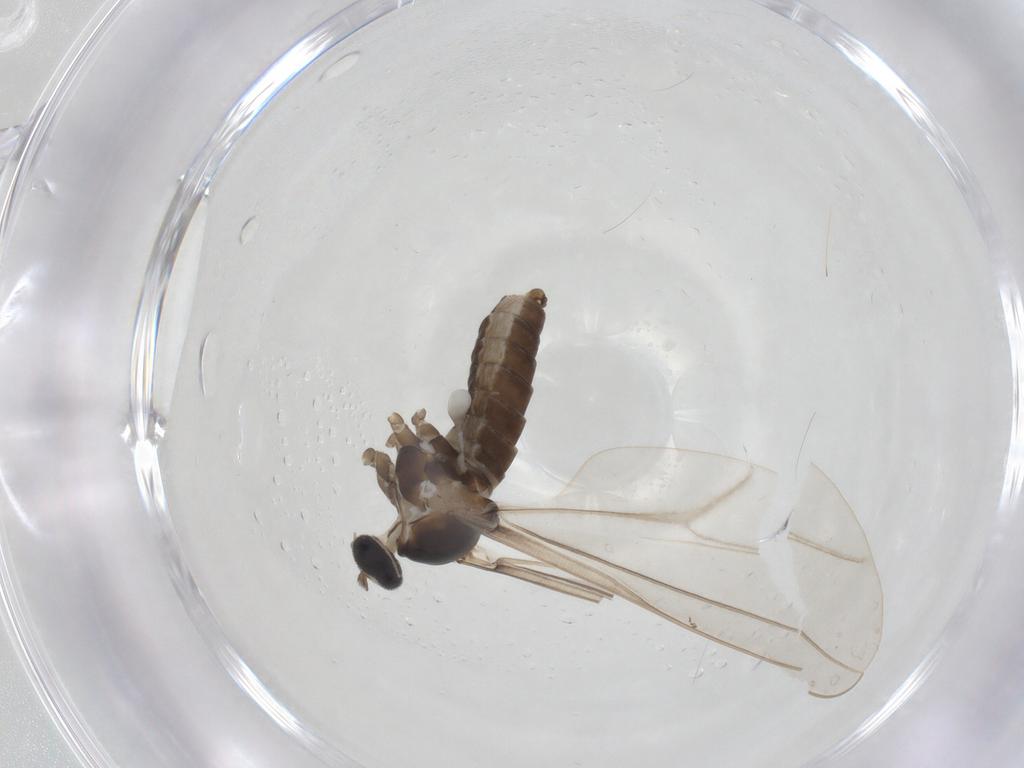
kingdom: Animalia
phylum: Arthropoda
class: Insecta
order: Diptera
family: Cecidomyiidae
